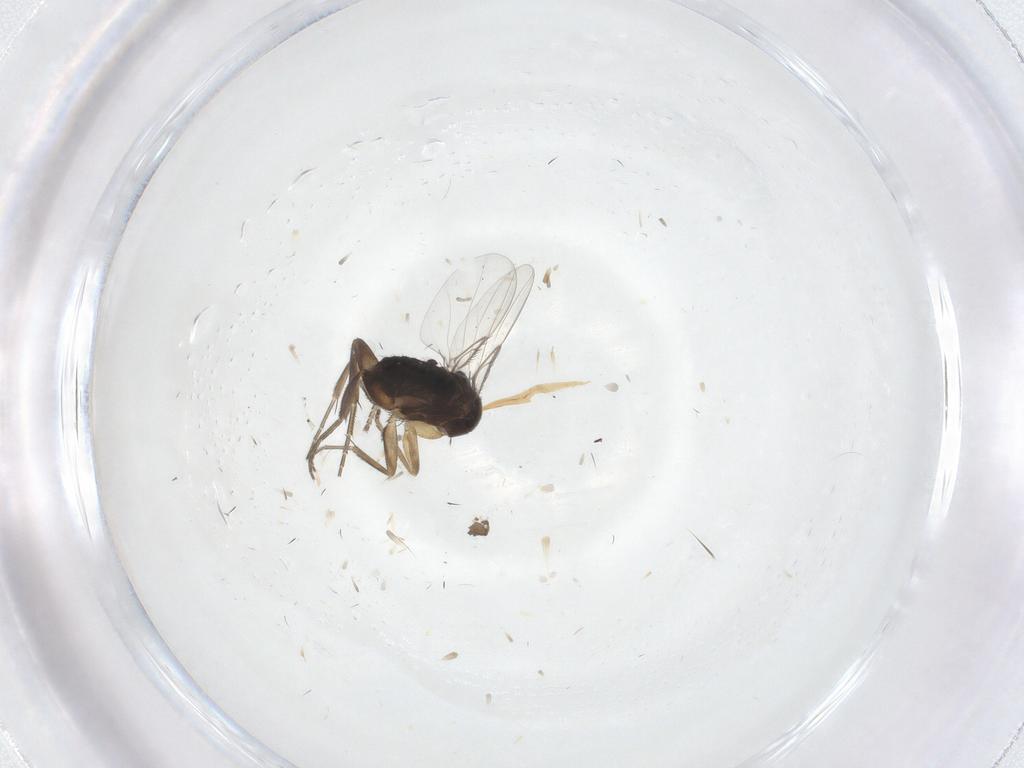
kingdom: Animalia
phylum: Arthropoda
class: Insecta
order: Diptera
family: Phoridae
